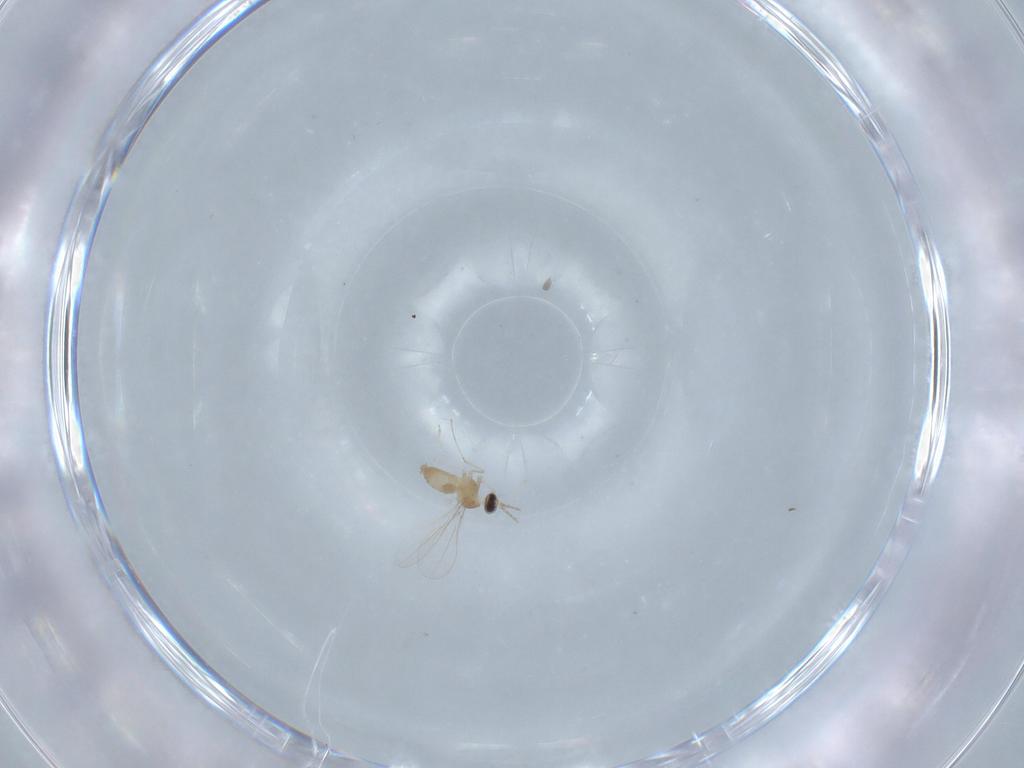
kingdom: Animalia
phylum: Arthropoda
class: Insecta
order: Diptera
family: Cecidomyiidae
